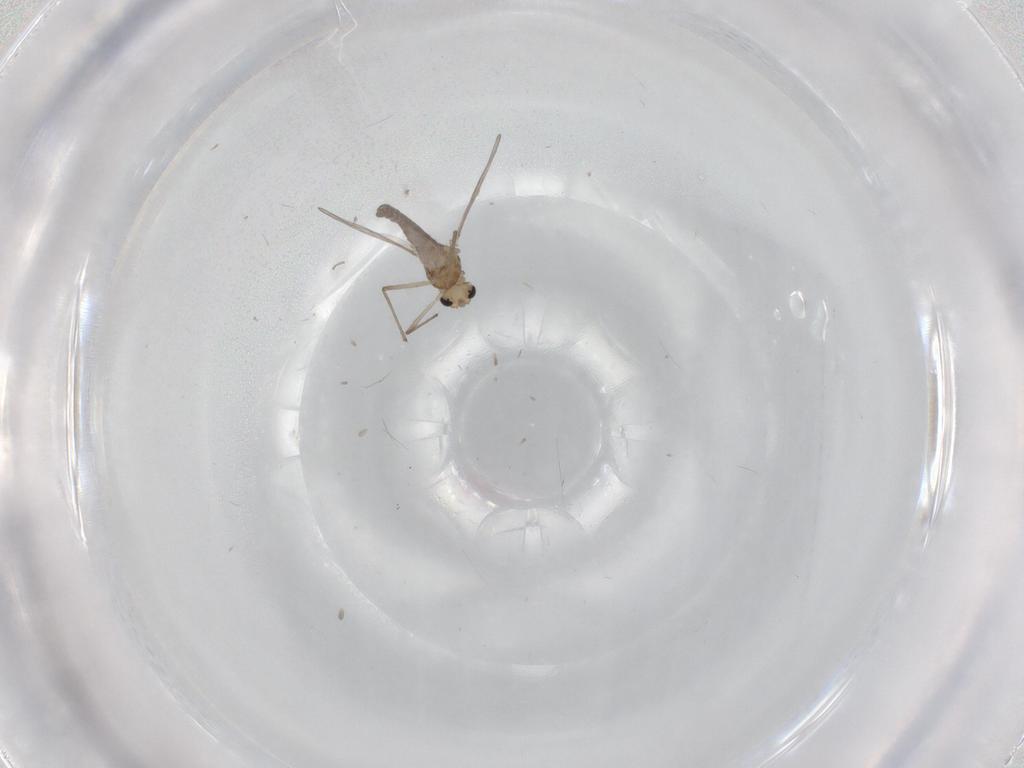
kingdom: Animalia
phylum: Arthropoda
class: Insecta
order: Diptera
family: Chironomidae
